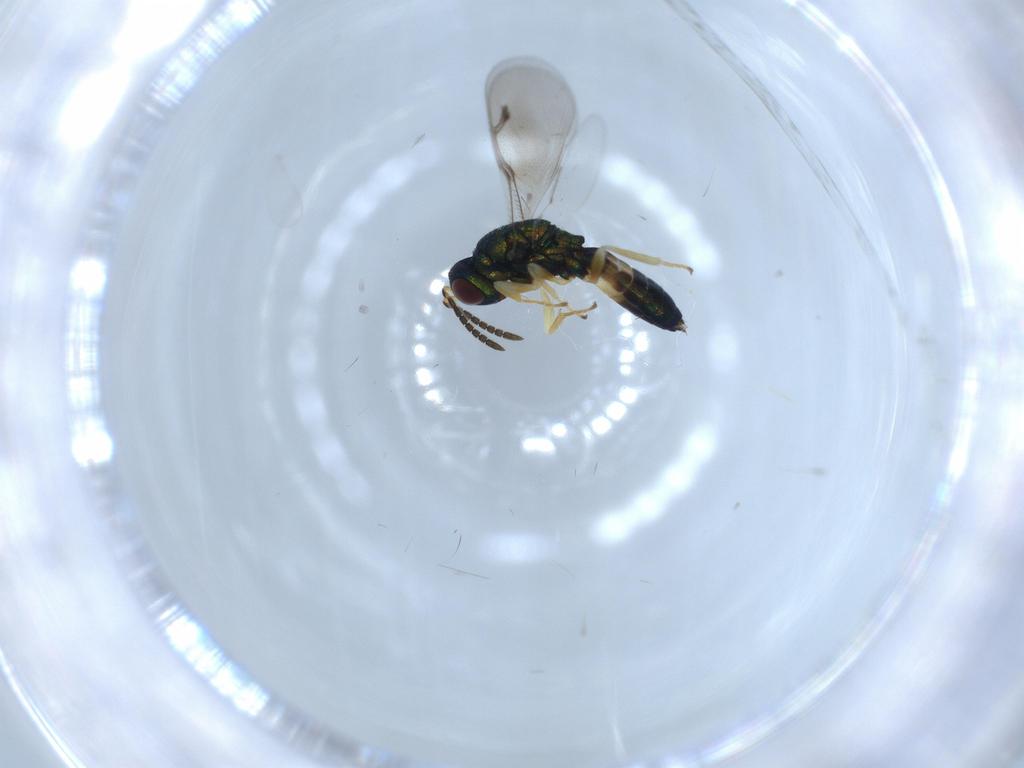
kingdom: Animalia
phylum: Arthropoda
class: Insecta
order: Hymenoptera
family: Pteromalidae
